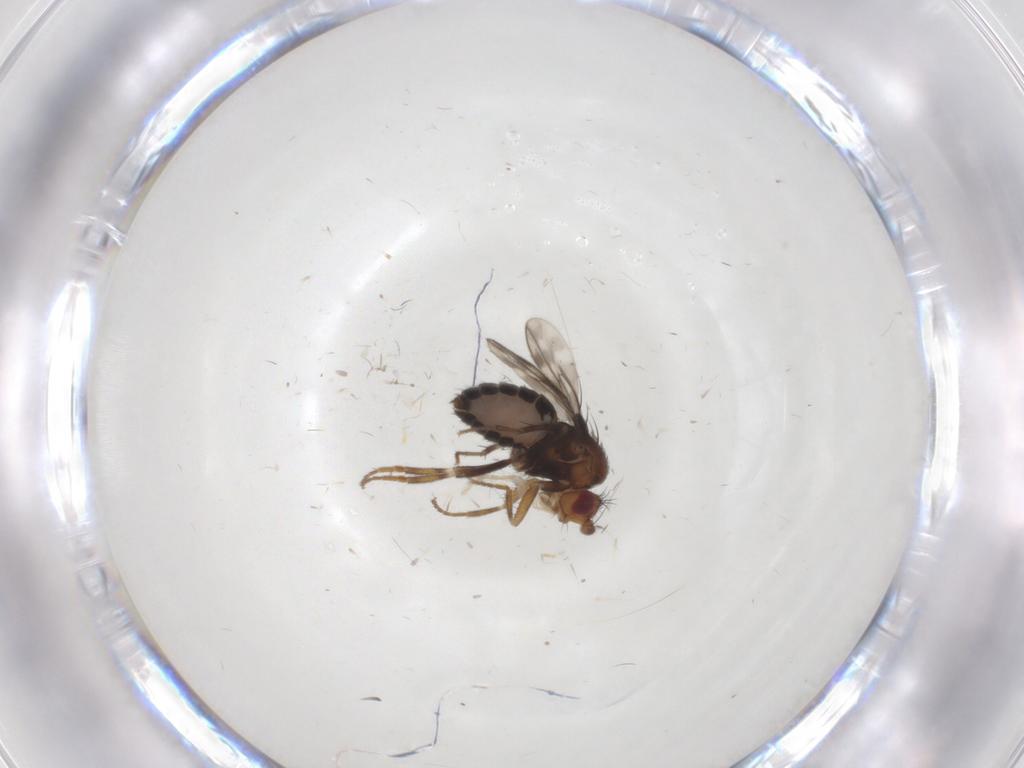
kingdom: Animalia
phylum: Arthropoda
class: Insecta
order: Diptera
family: Sphaeroceridae
